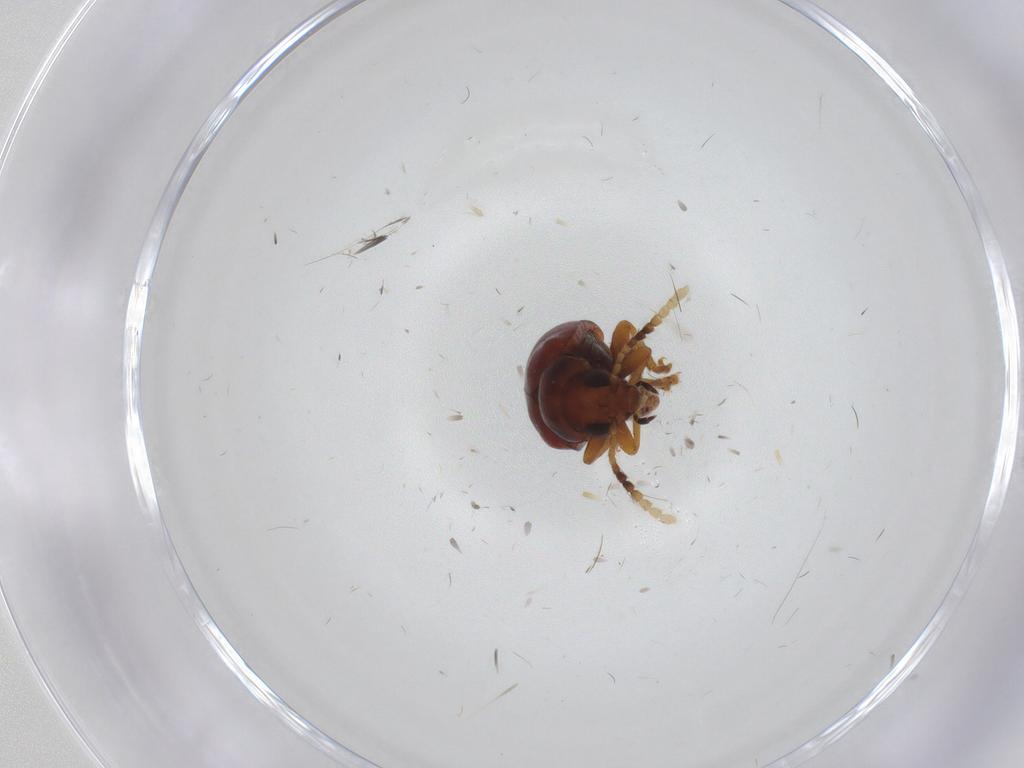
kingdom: Animalia
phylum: Arthropoda
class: Insecta
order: Coleoptera
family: Chrysomelidae
